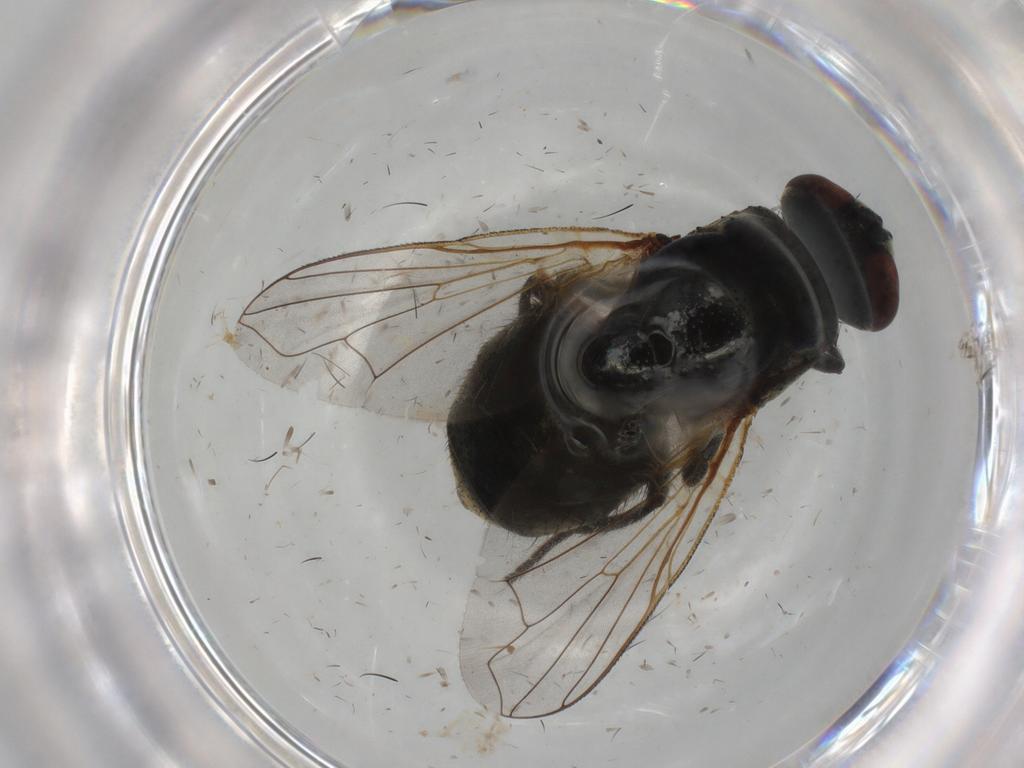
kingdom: Animalia
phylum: Arthropoda
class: Insecta
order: Diptera
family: Muscidae
